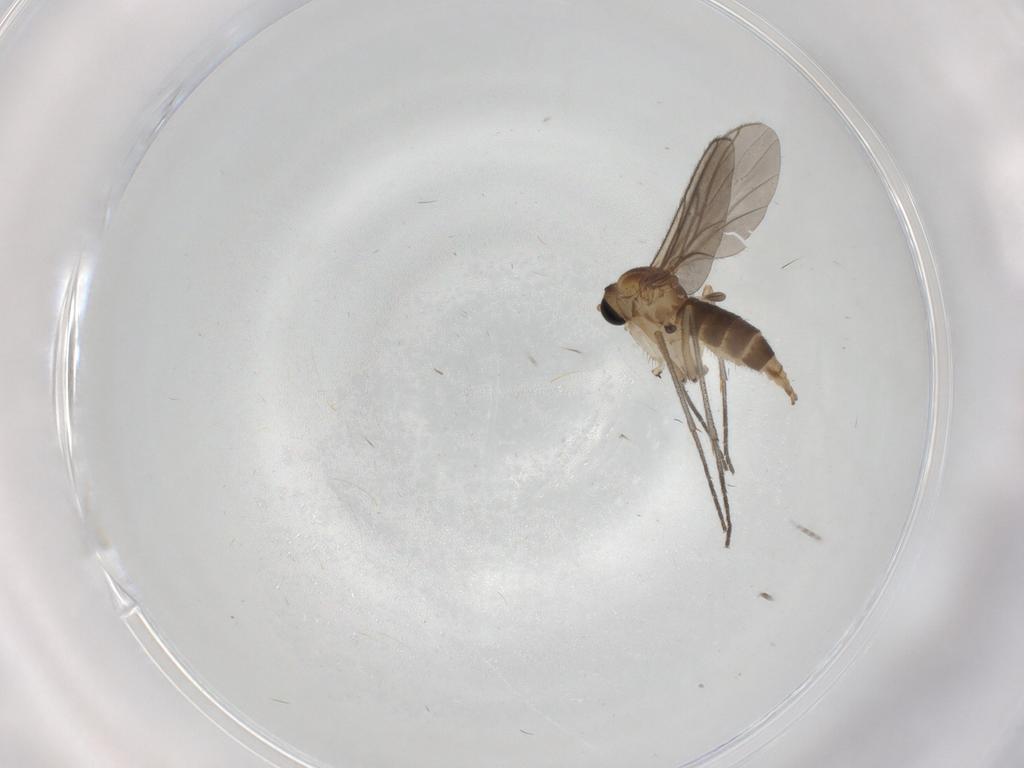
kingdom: Animalia
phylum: Arthropoda
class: Insecta
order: Diptera
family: Sciaridae
